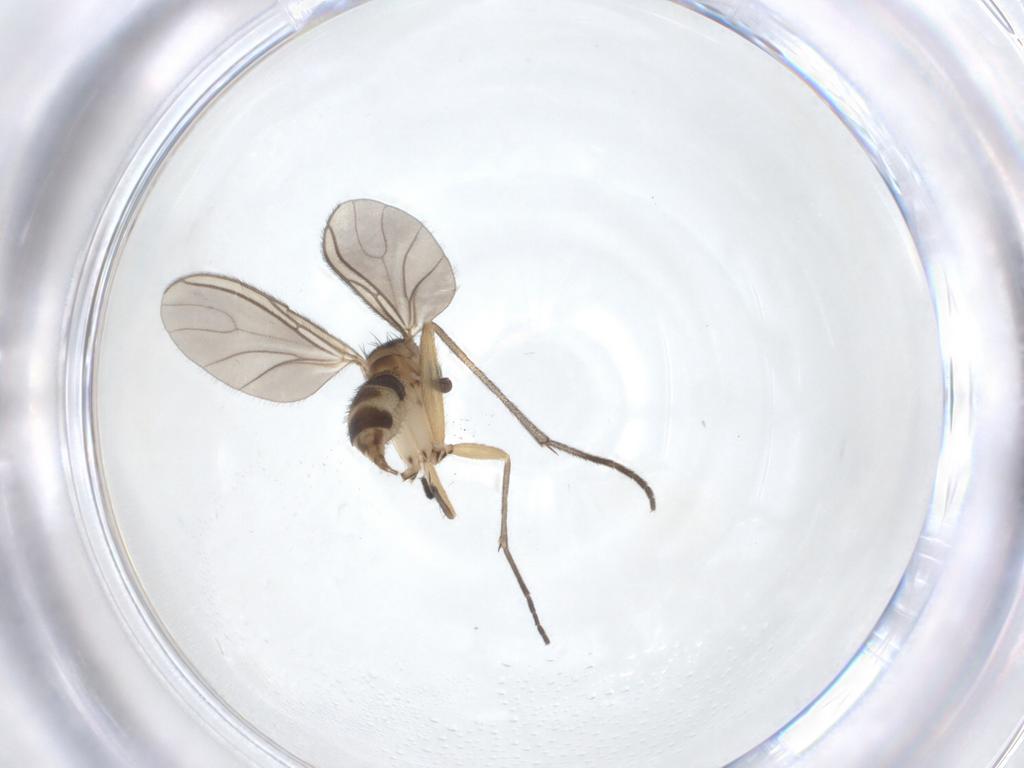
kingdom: Animalia
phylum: Arthropoda
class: Insecta
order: Diptera
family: Sciaridae
